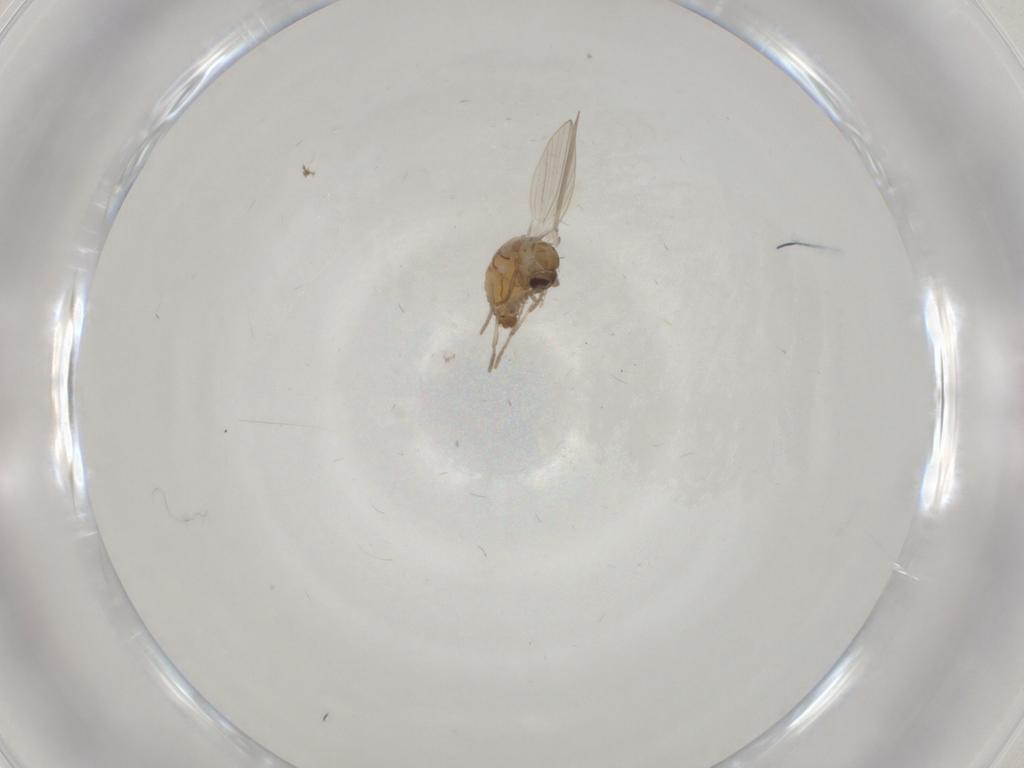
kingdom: Animalia
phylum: Arthropoda
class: Insecta
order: Diptera
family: Psychodidae
